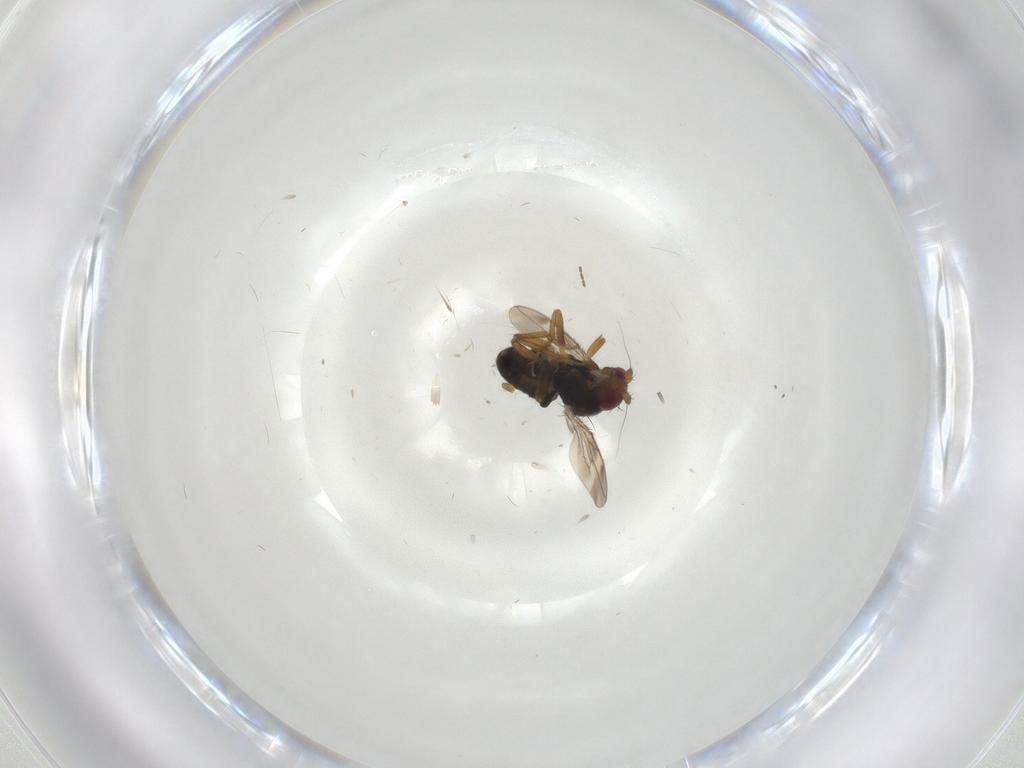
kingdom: Animalia
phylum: Arthropoda
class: Insecta
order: Diptera
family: Sphaeroceridae
